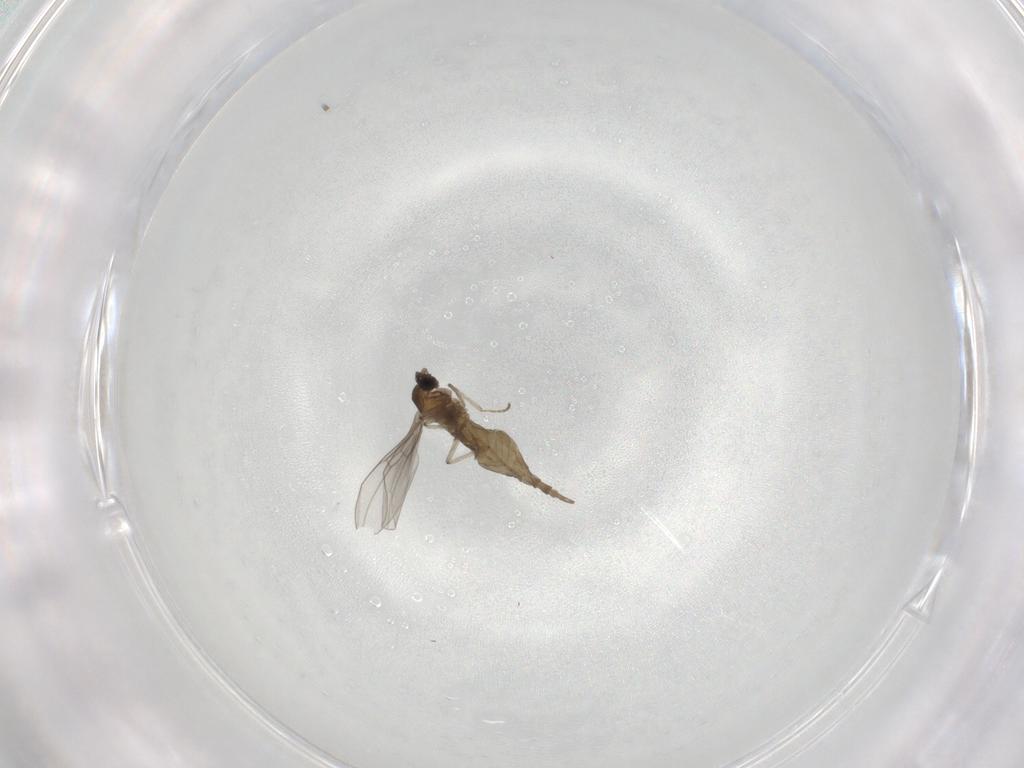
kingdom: Animalia
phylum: Arthropoda
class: Insecta
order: Diptera
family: Cecidomyiidae
